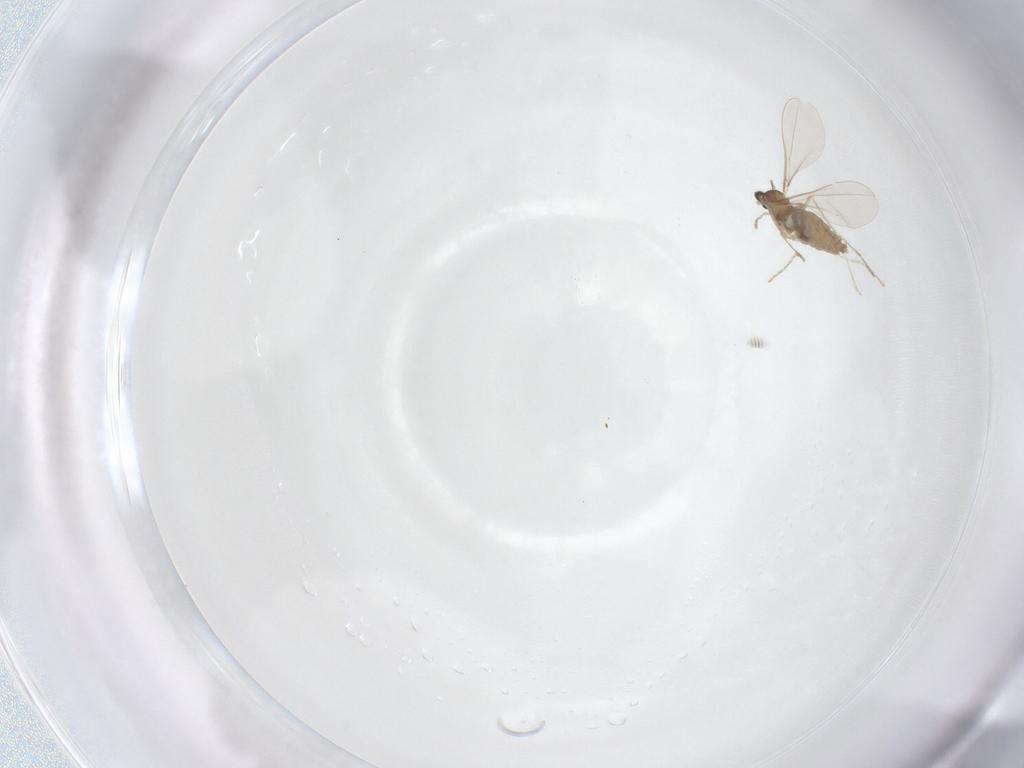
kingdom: Animalia
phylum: Arthropoda
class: Insecta
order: Diptera
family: Cecidomyiidae
